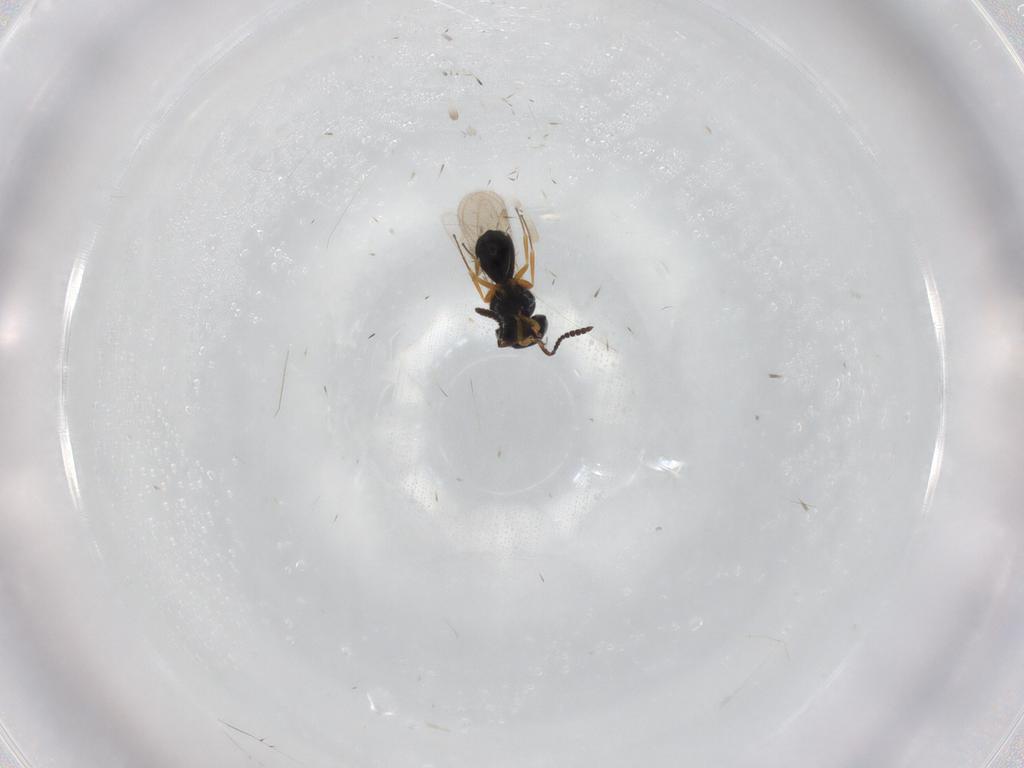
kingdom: Animalia
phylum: Arthropoda
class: Insecta
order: Hymenoptera
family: Scelionidae
